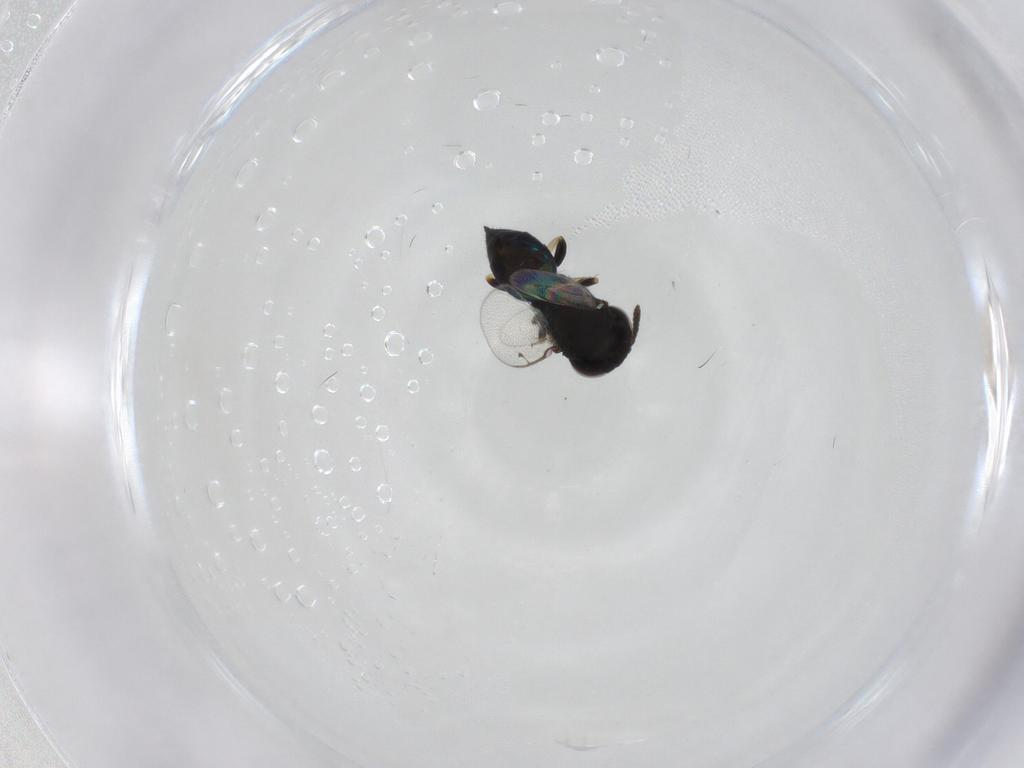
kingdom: Animalia
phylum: Arthropoda
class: Insecta
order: Hymenoptera
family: Pteromalidae
